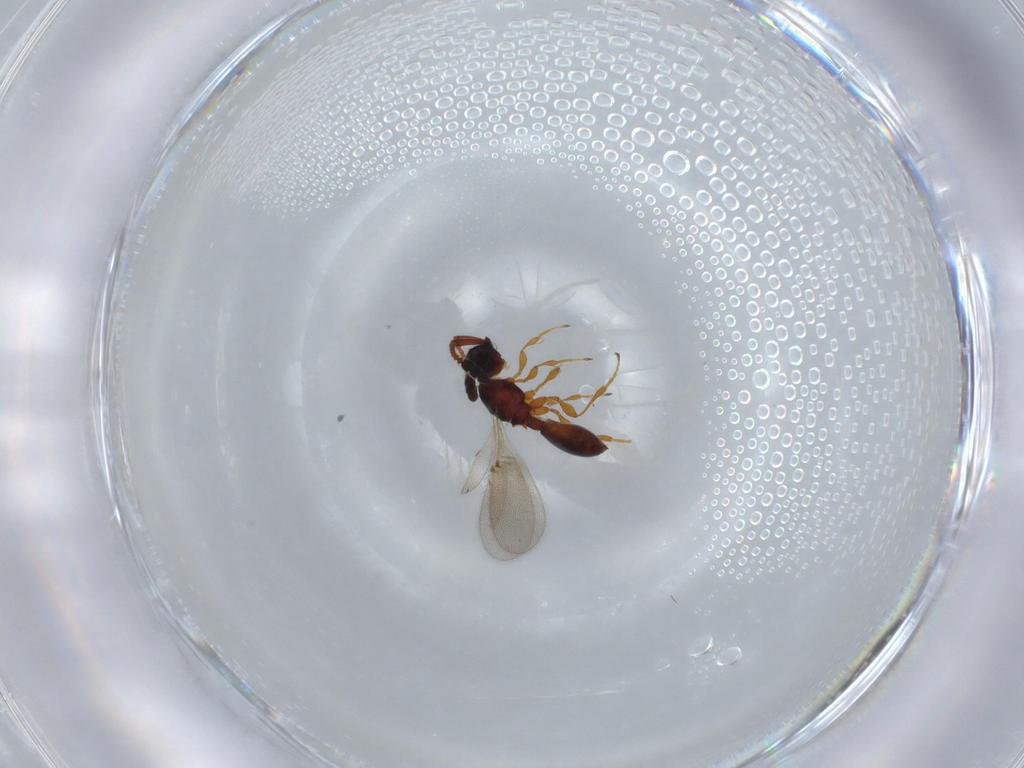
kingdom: Animalia
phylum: Arthropoda
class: Insecta
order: Hymenoptera
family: Diapriidae
